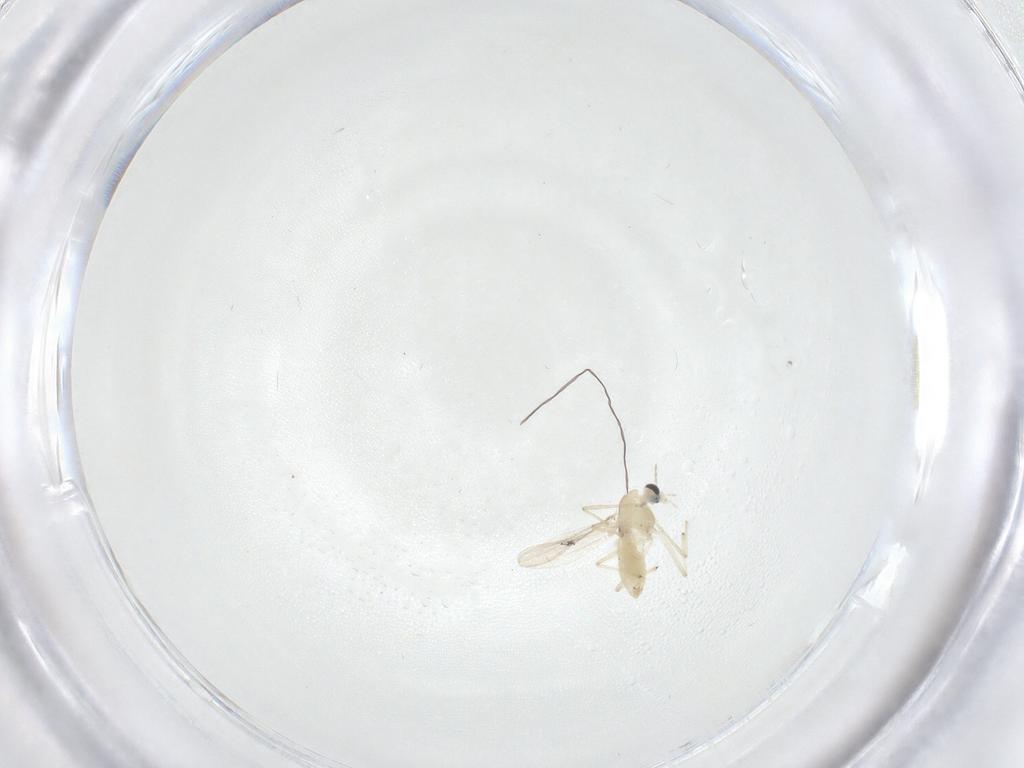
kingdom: Animalia
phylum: Arthropoda
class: Insecta
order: Diptera
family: Chironomidae
